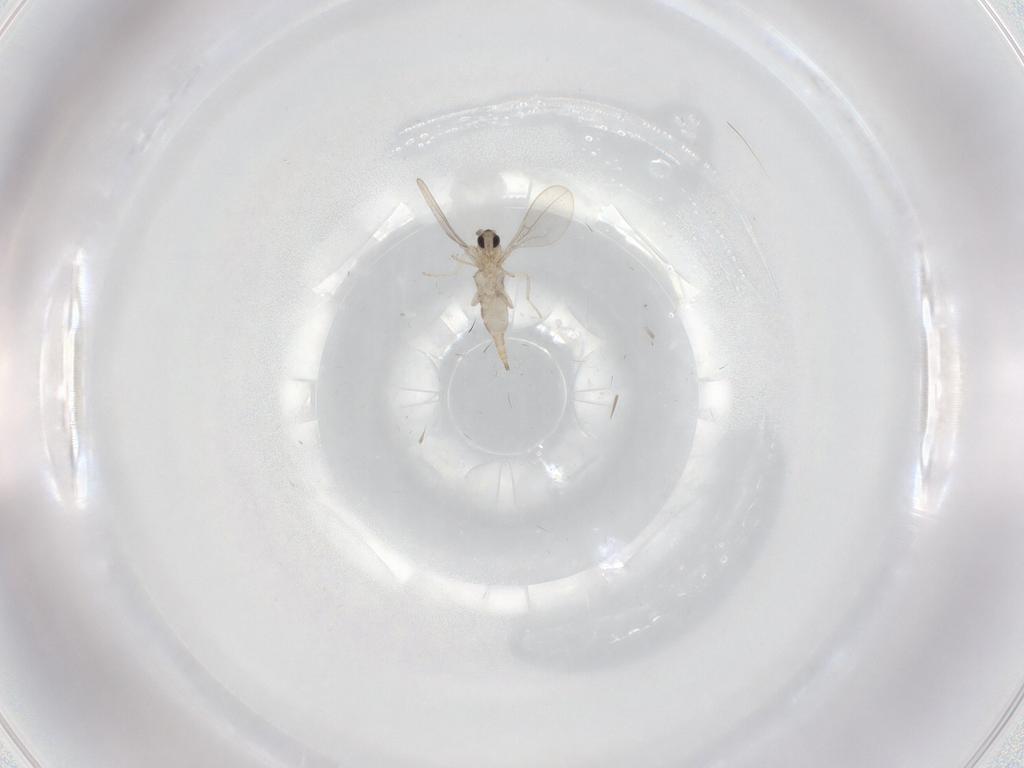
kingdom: Animalia
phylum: Arthropoda
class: Insecta
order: Diptera
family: Cecidomyiidae
